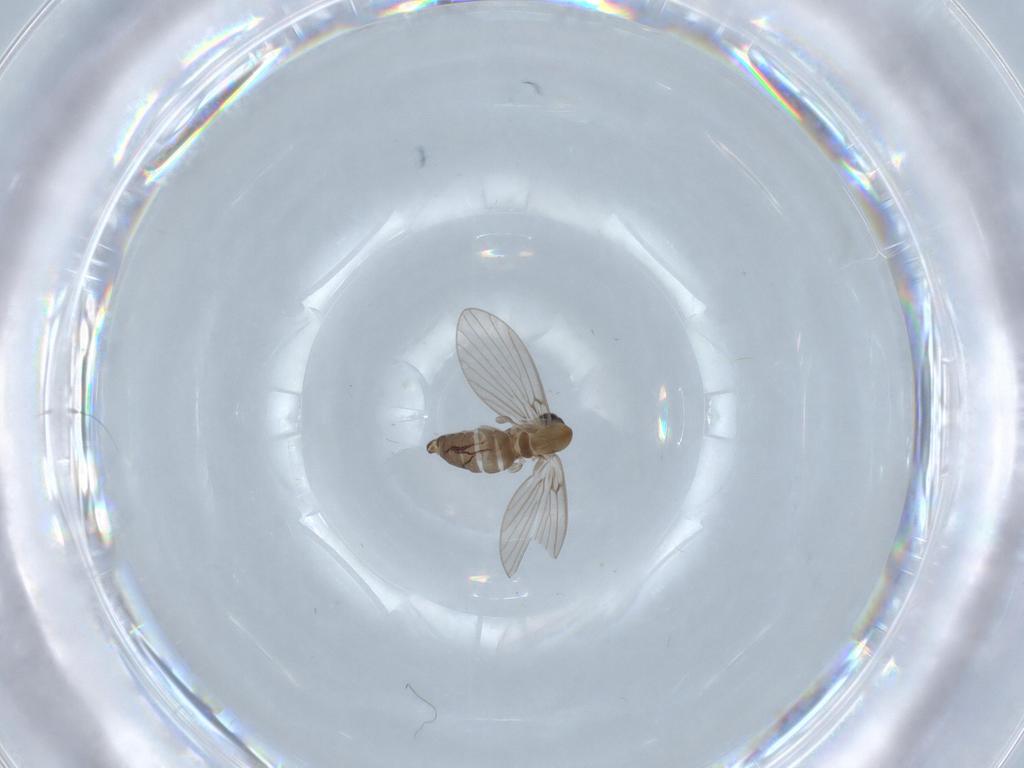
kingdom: Animalia
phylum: Arthropoda
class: Insecta
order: Diptera
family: Psychodidae
